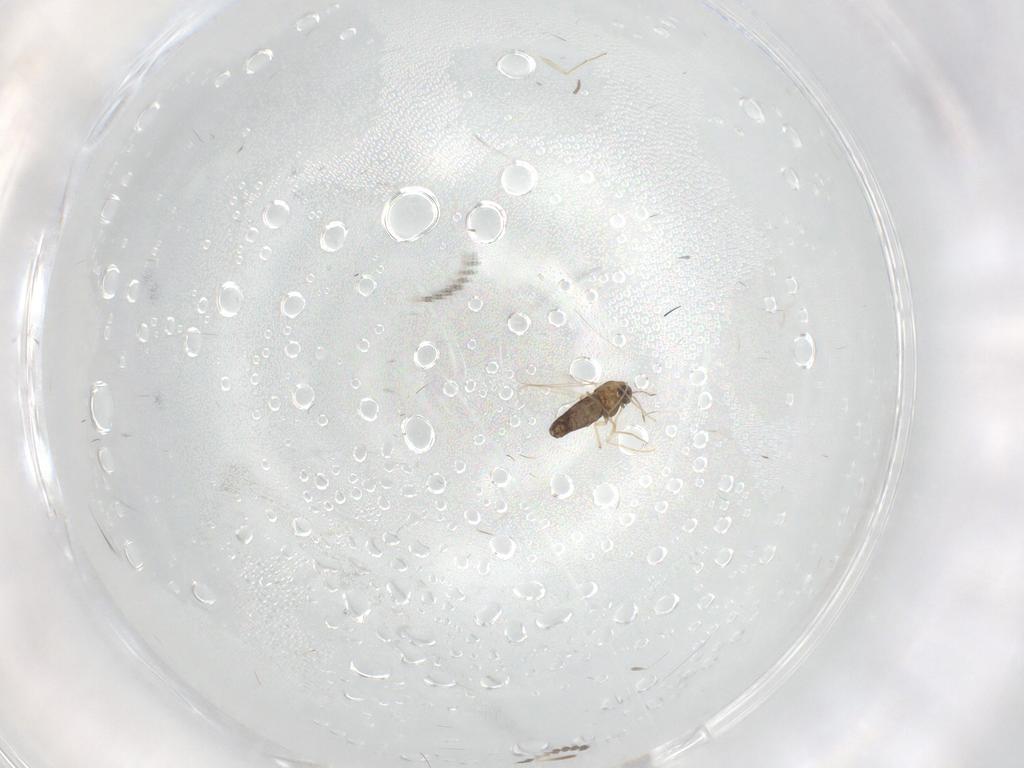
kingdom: Animalia
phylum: Arthropoda
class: Insecta
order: Diptera
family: Chironomidae
